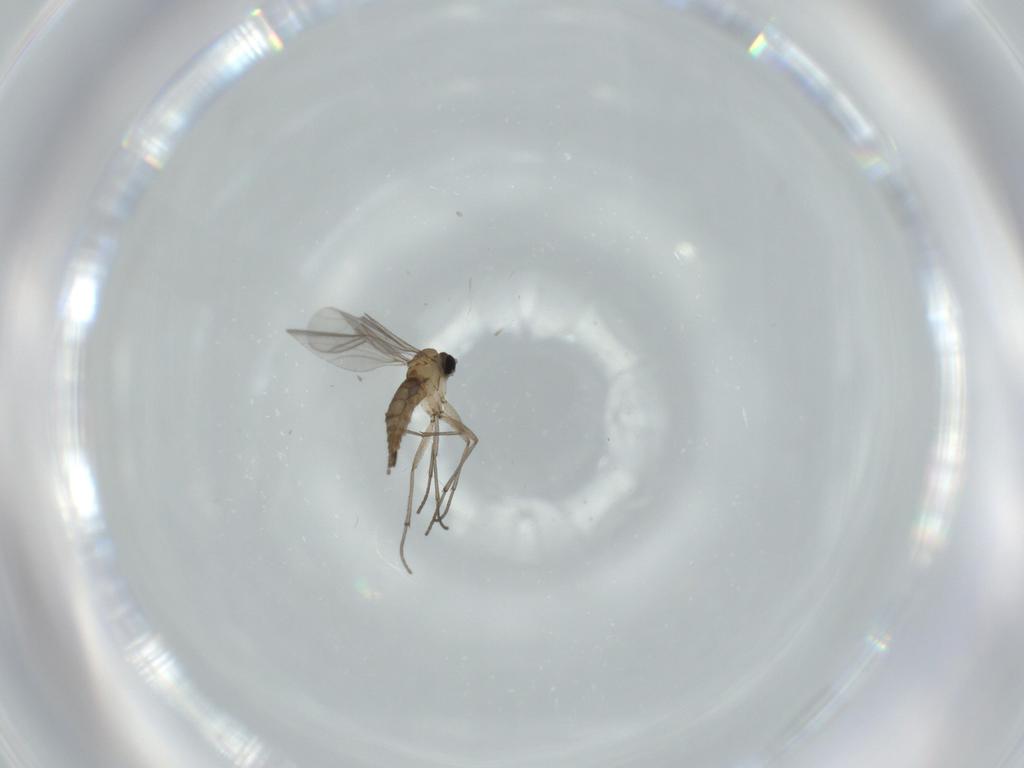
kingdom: Animalia
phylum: Arthropoda
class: Insecta
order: Diptera
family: Sciaridae
